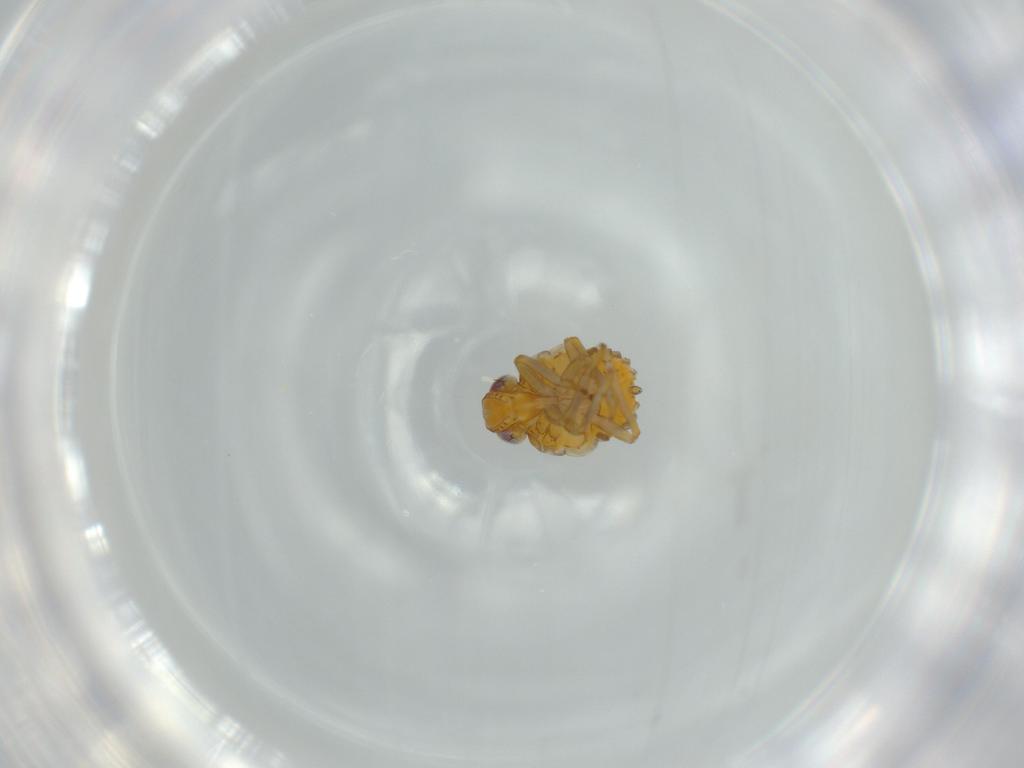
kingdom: Animalia
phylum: Arthropoda
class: Insecta
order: Hemiptera
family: Issidae
